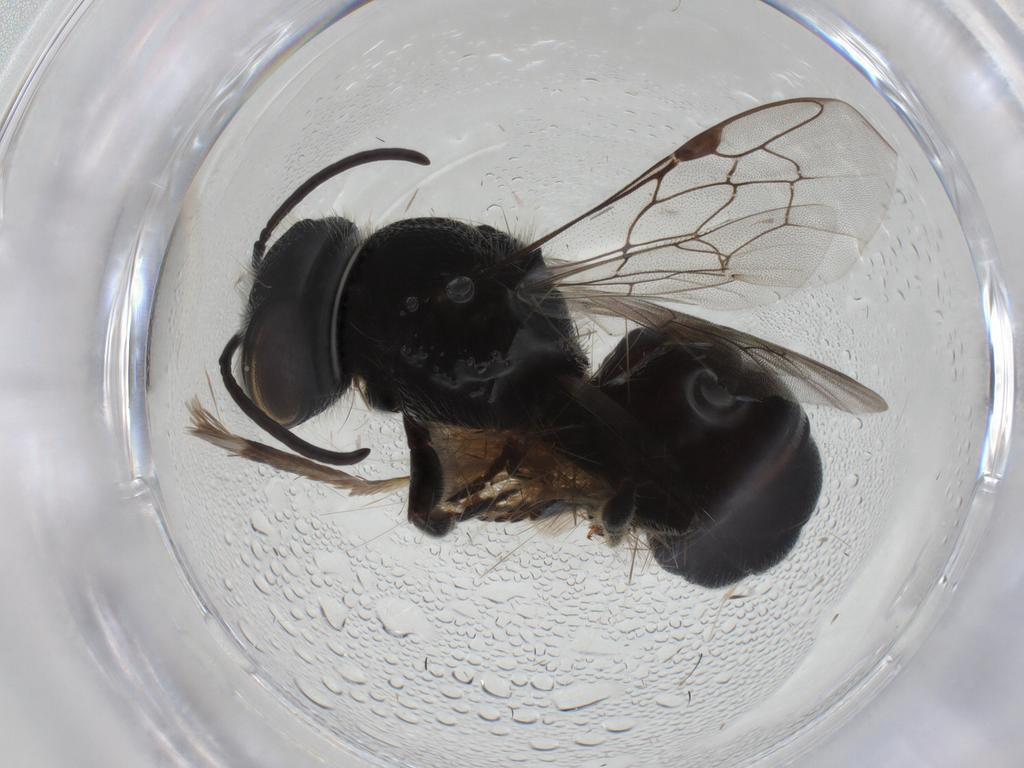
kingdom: Animalia
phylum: Arthropoda
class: Insecta
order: Hymenoptera
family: Megachilidae
